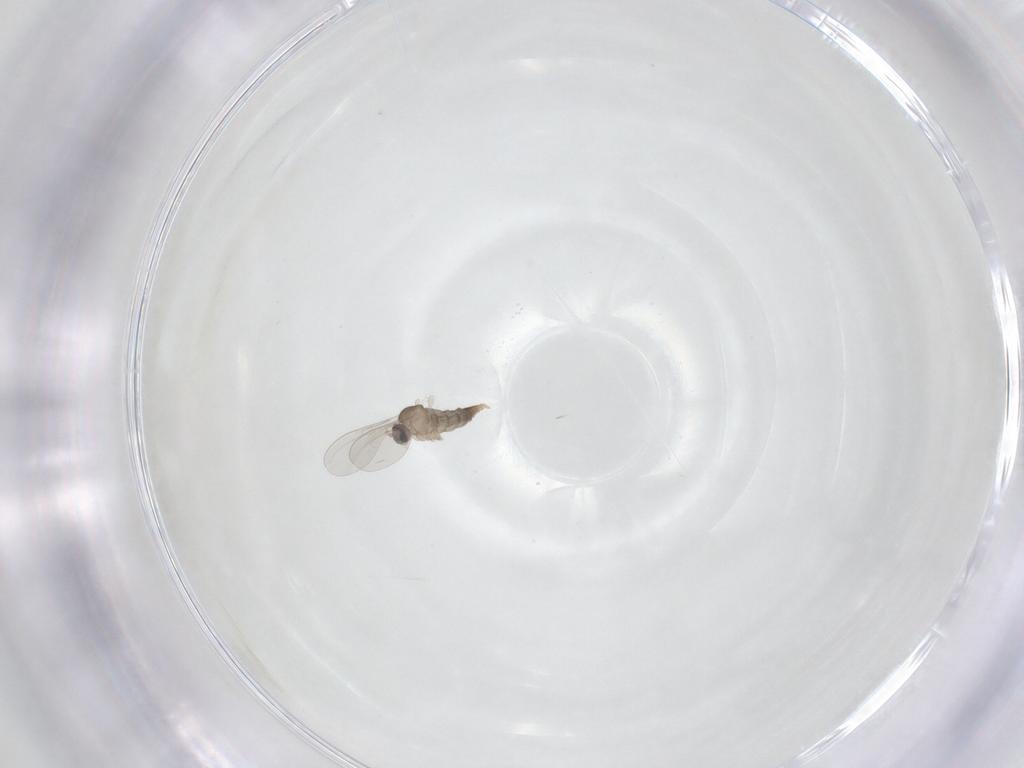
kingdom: Animalia
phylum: Arthropoda
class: Insecta
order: Diptera
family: Cecidomyiidae
